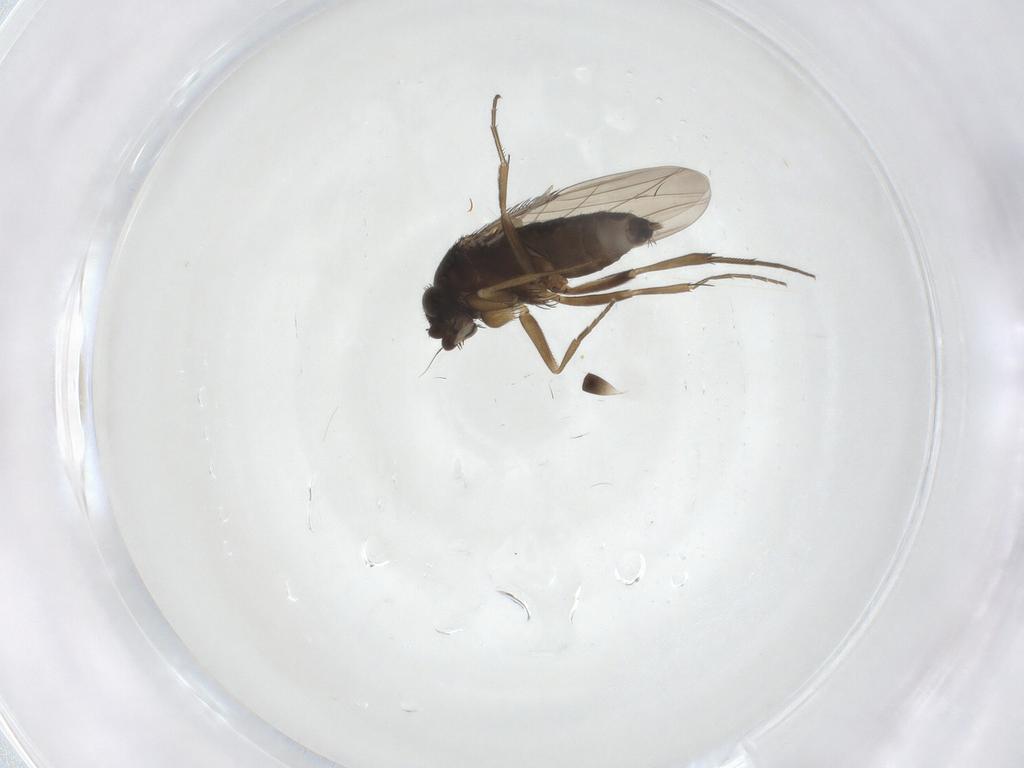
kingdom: Animalia
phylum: Arthropoda
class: Insecta
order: Diptera
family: Phoridae
